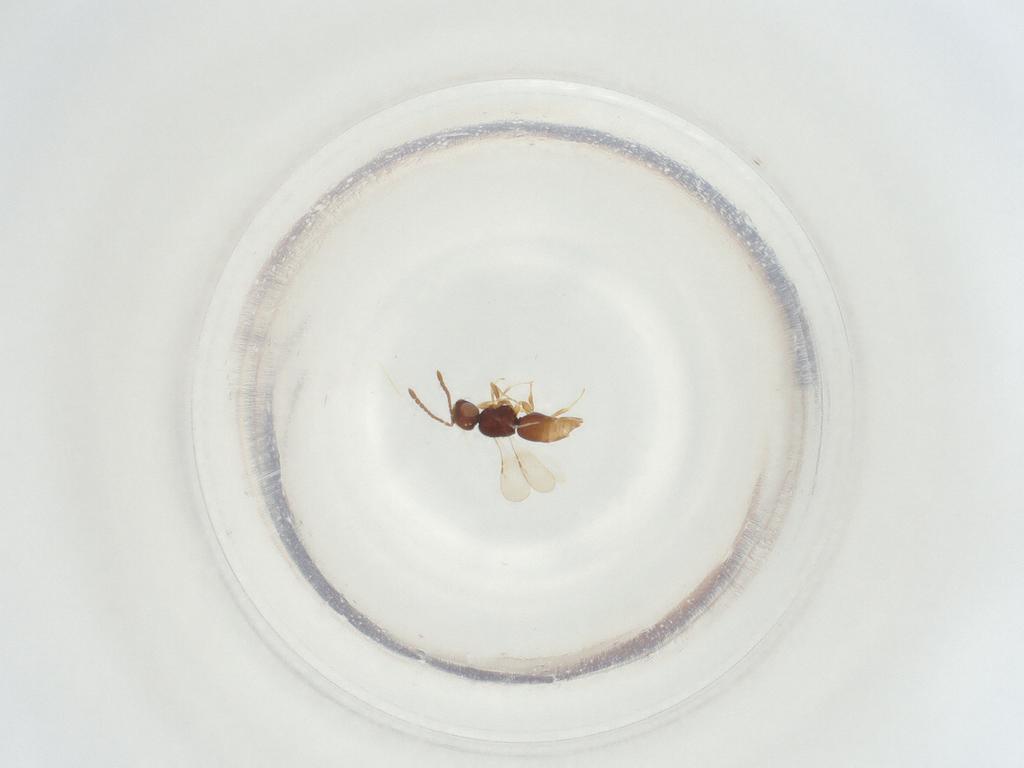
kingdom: Animalia
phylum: Arthropoda
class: Insecta
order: Diptera
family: Sciaridae
